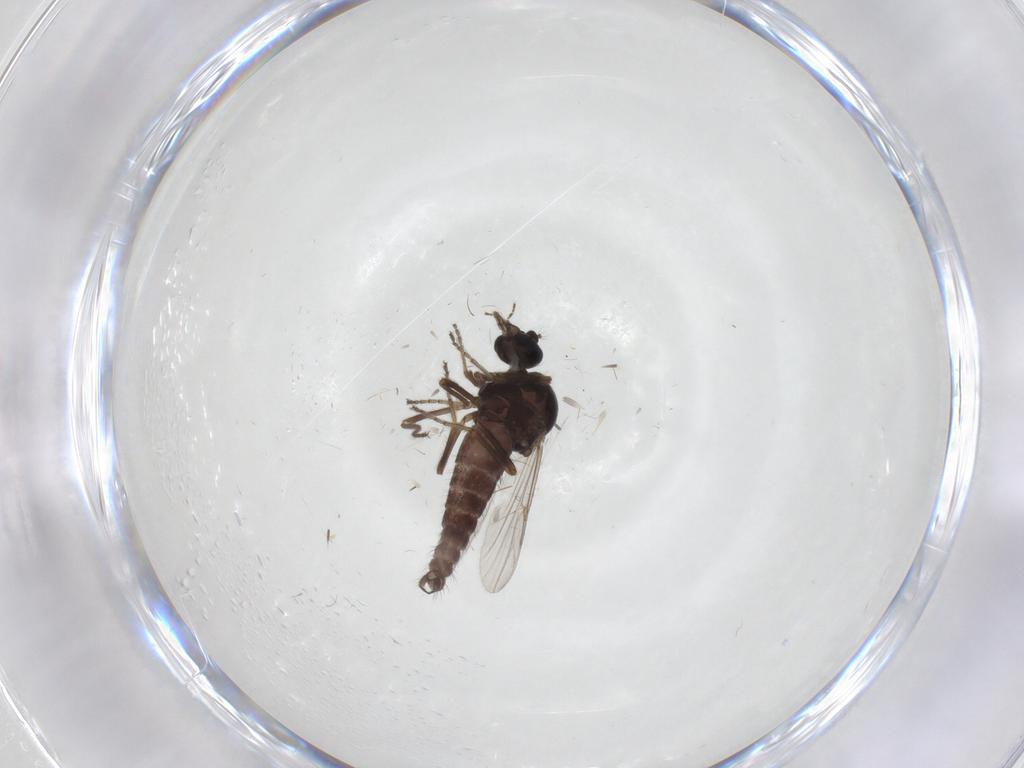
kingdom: Animalia
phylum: Arthropoda
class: Insecta
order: Diptera
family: Ceratopogonidae
